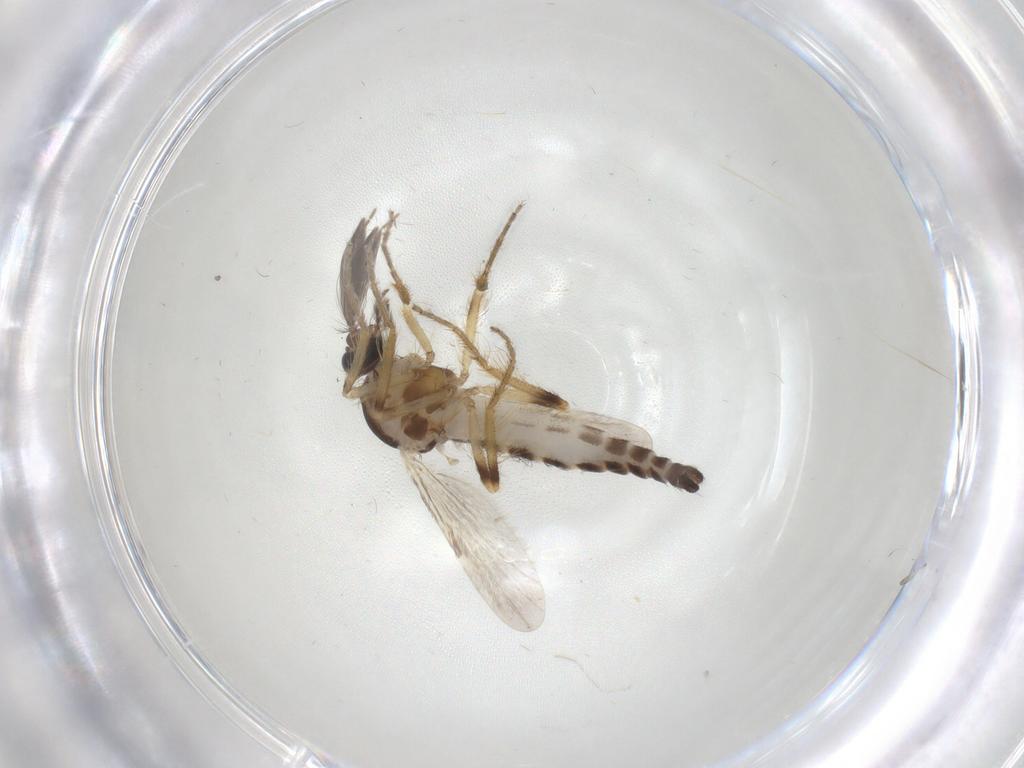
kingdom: Animalia
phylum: Arthropoda
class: Insecta
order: Diptera
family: Ceratopogonidae
